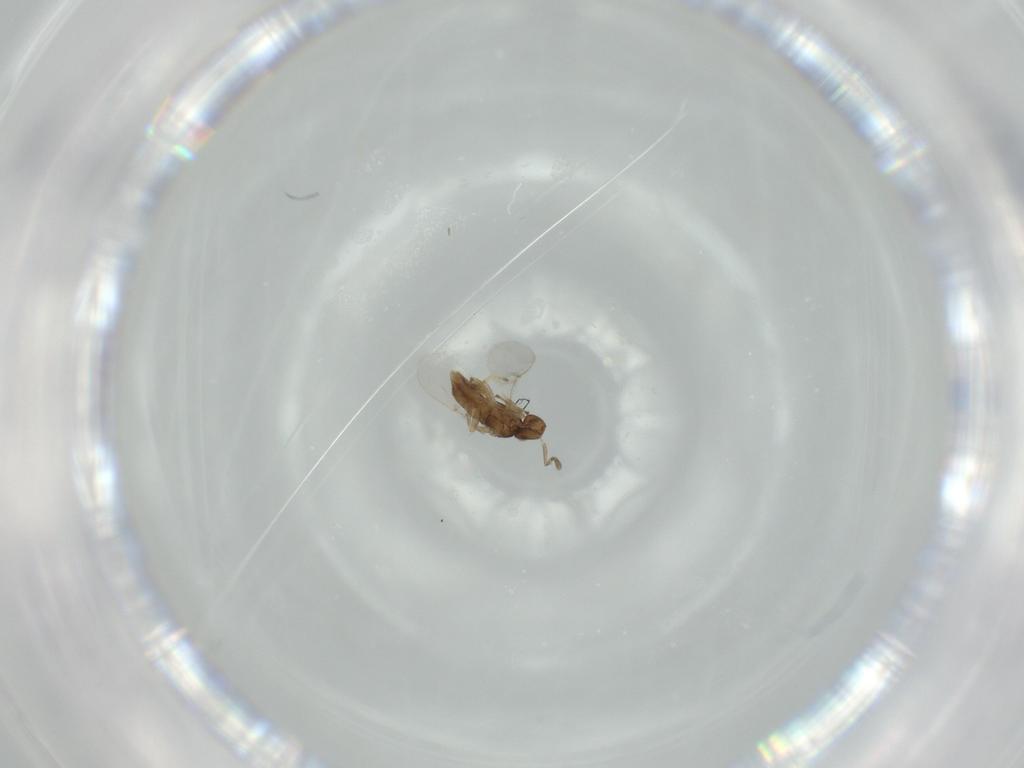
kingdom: Animalia
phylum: Arthropoda
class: Insecta
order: Hymenoptera
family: Encyrtidae
